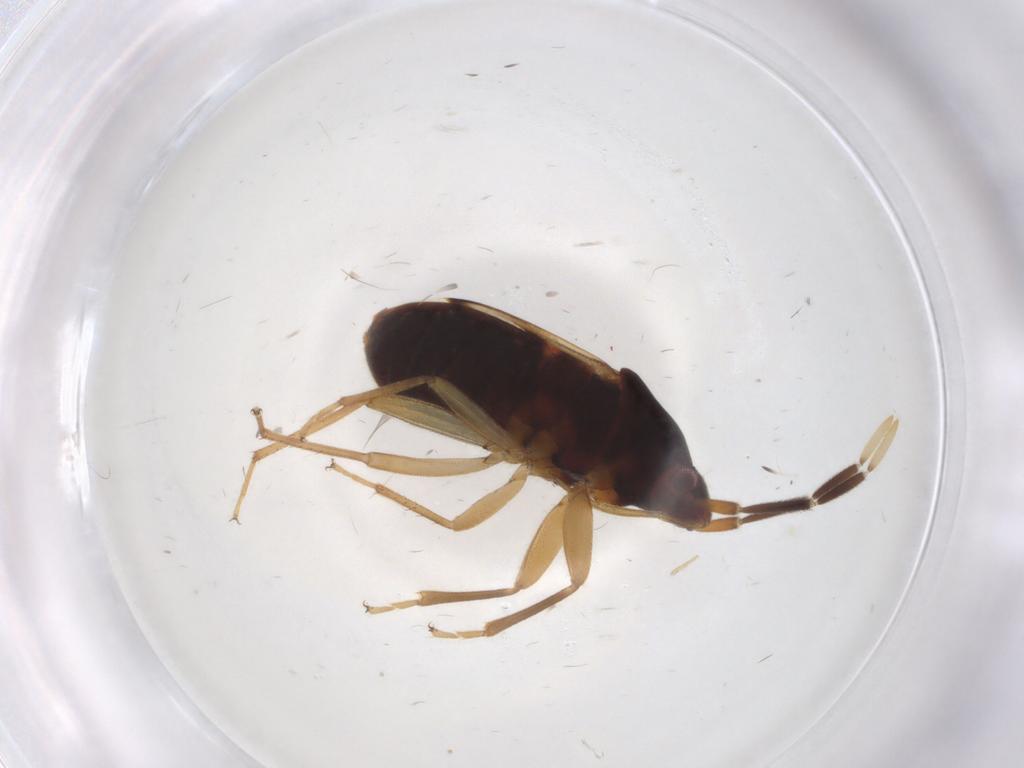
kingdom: Animalia
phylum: Arthropoda
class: Insecta
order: Hemiptera
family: Rhyparochromidae
